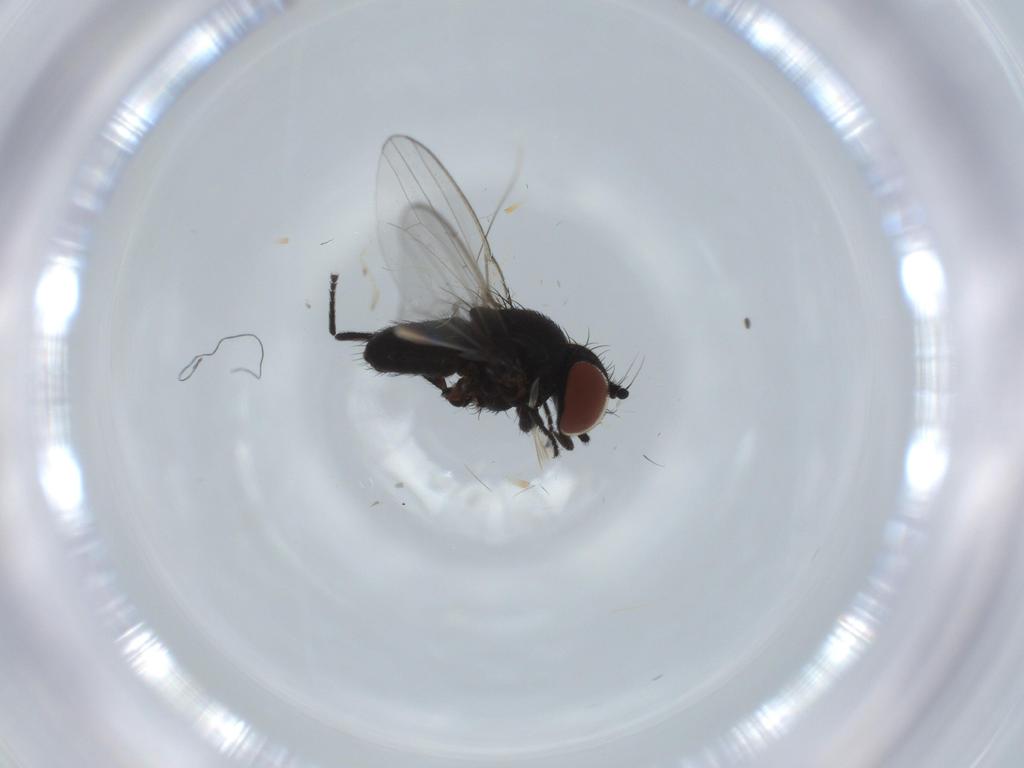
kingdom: Animalia
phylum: Arthropoda
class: Insecta
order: Diptera
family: Milichiidae
